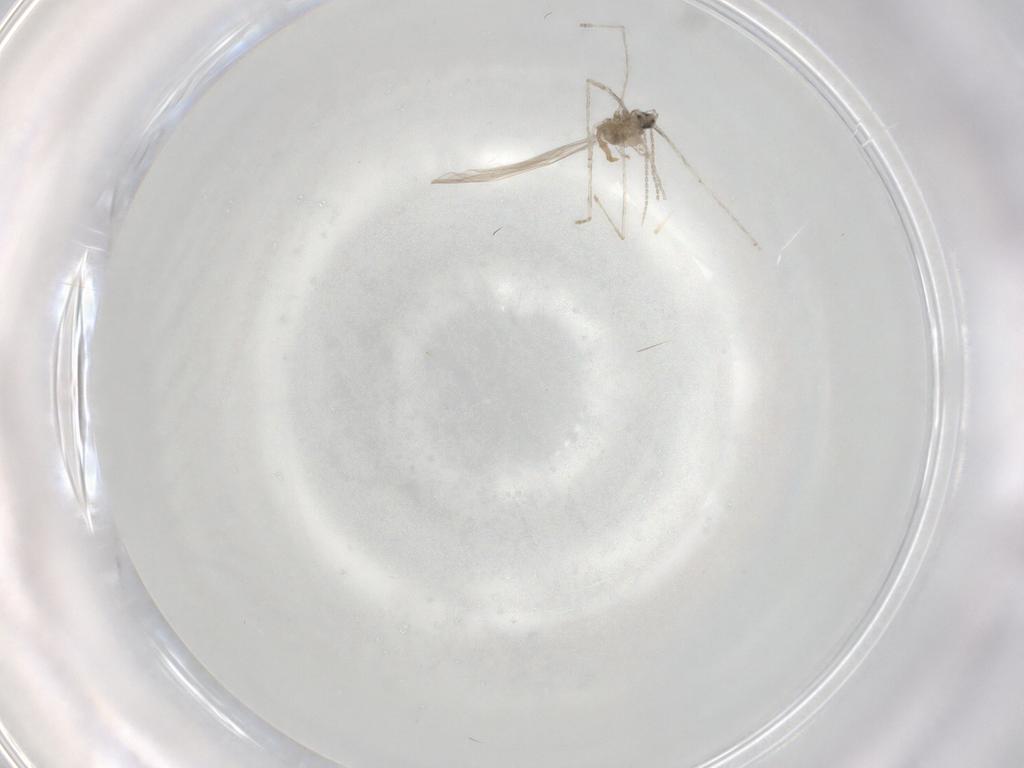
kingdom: Animalia
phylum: Arthropoda
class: Insecta
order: Diptera
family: Cecidomyiidae
